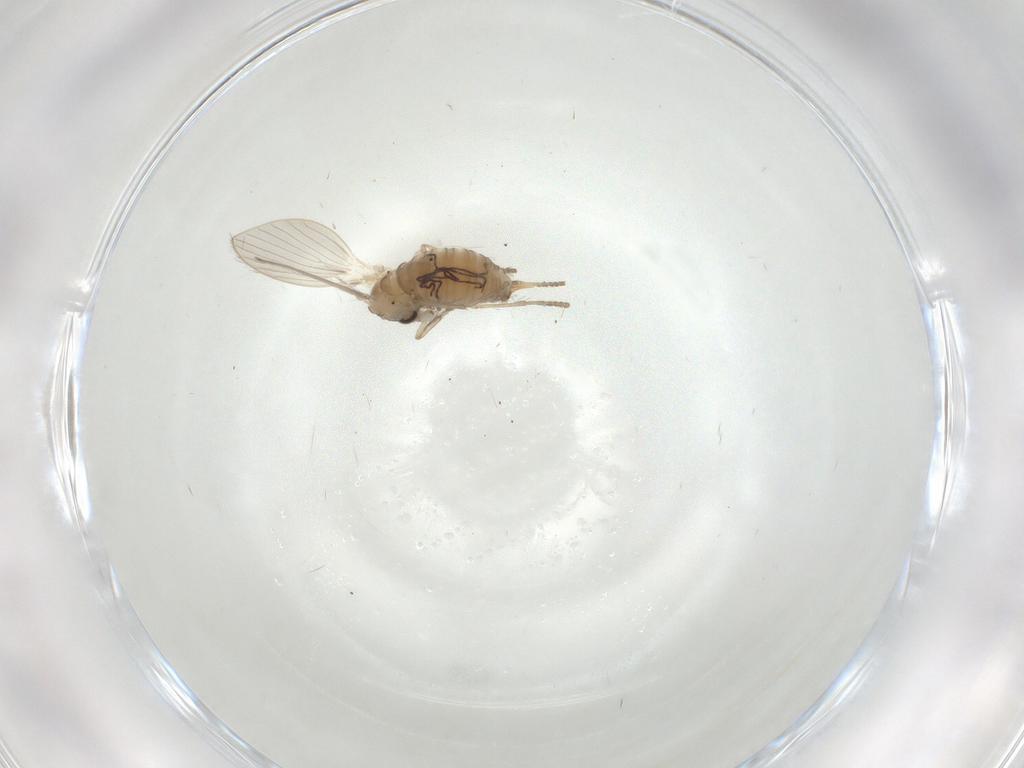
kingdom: Animalia
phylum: Arthropoda
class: Insecta
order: Diptera
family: Psychodidae
